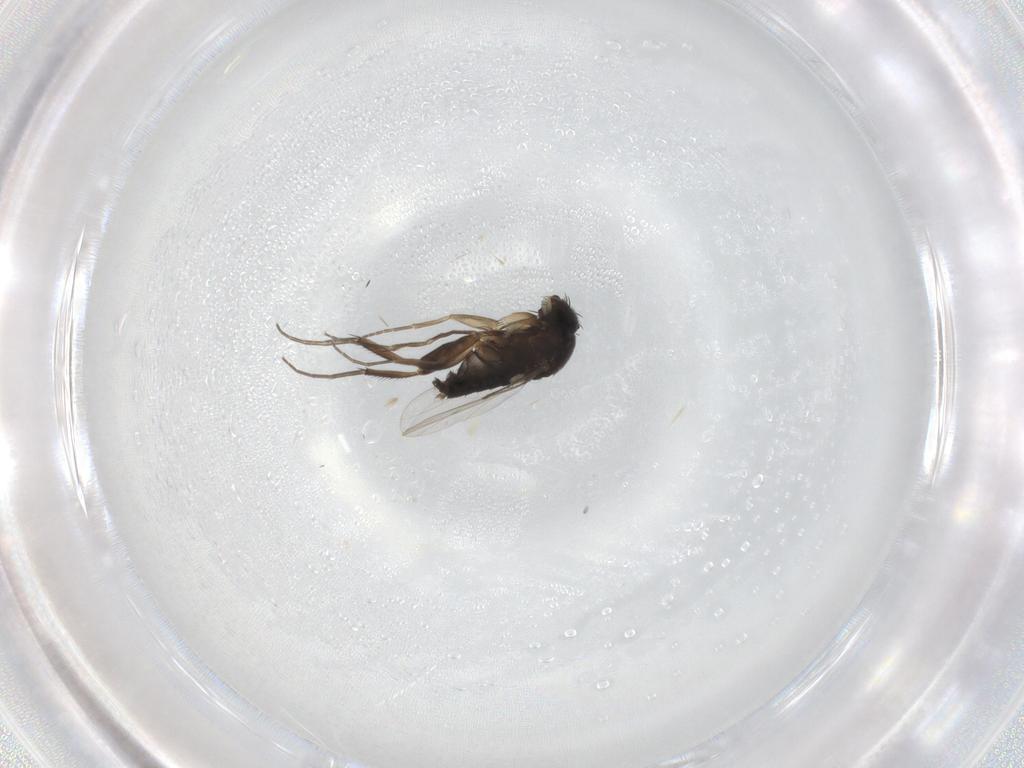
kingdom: Animalia
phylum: Arthropoda
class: Insecta
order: Diptera
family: Phoridae
